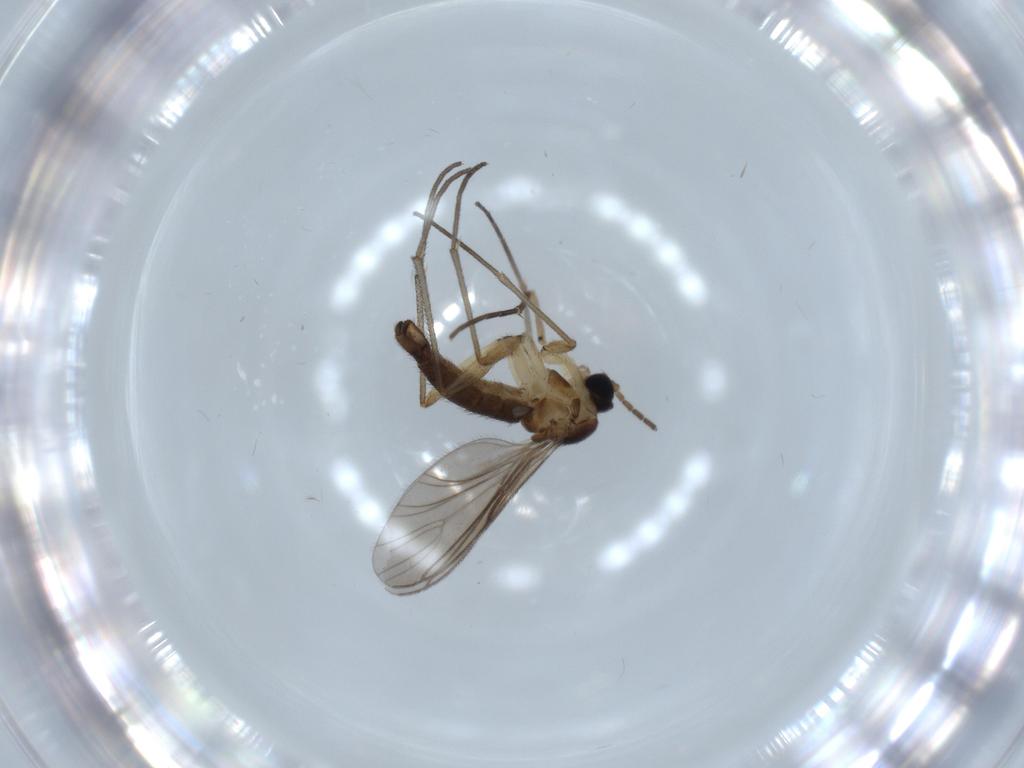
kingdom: Animalia
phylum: Arthropoda
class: Insecta
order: Diptera
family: Sciaridae
